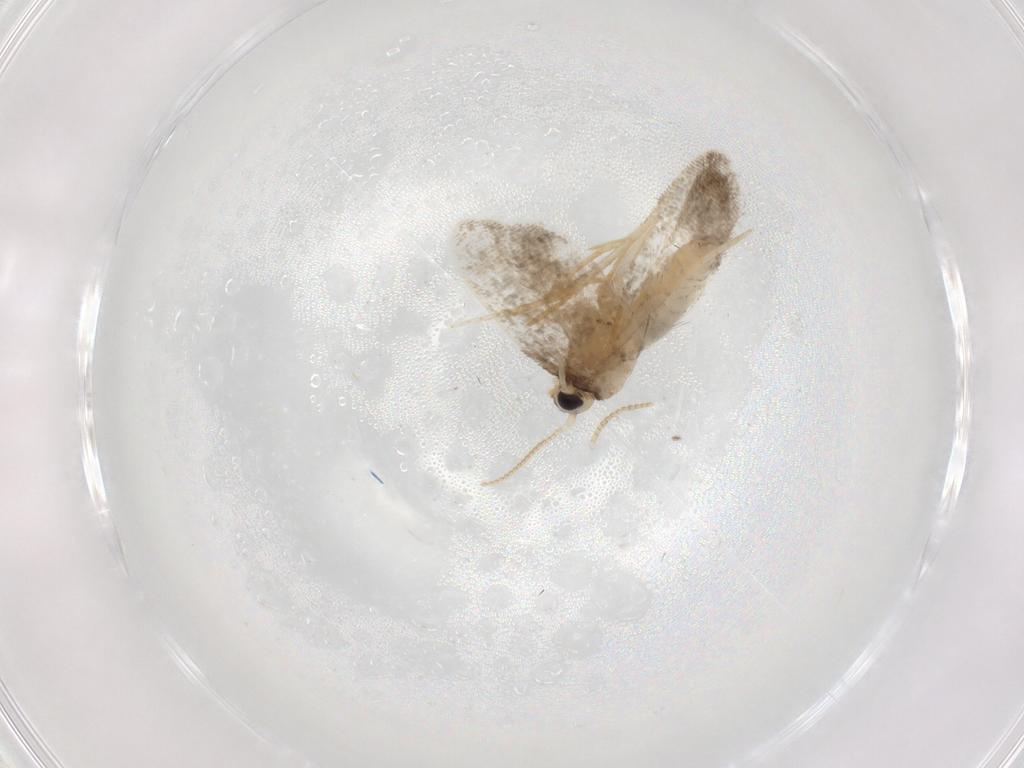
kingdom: Animalia
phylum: Arthropoda
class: Insecta
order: Lepidoptera
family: Psychidae
